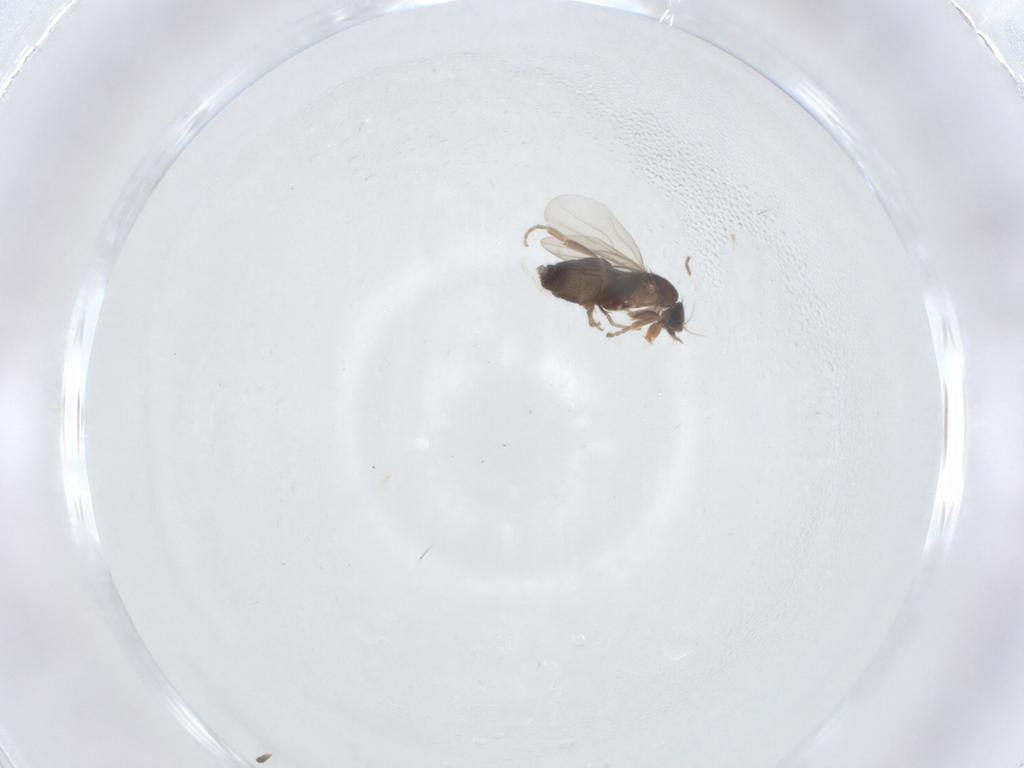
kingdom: Animalia
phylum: Arthropoda
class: Insecta
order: Diptera
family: Phoridae
